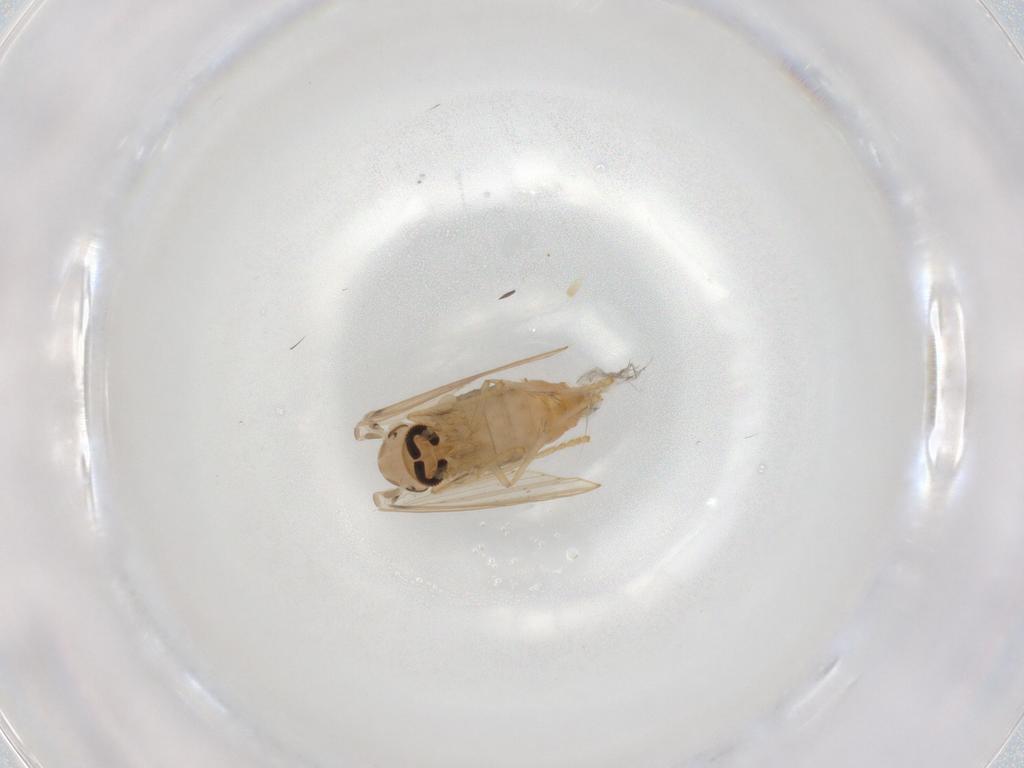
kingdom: Animalia
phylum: Arthropoda
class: Insecta
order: Diptera
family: Psychodidae
